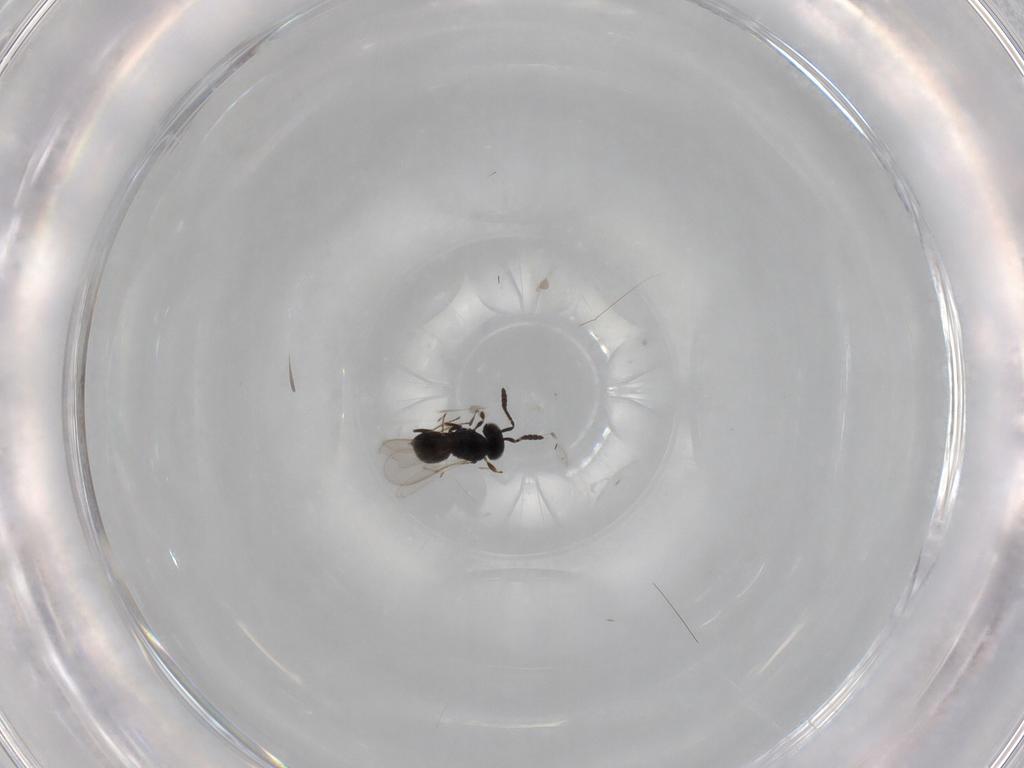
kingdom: Animalia
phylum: Arthropoda
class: Insecta
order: Hymenoptera
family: Scelionidae
